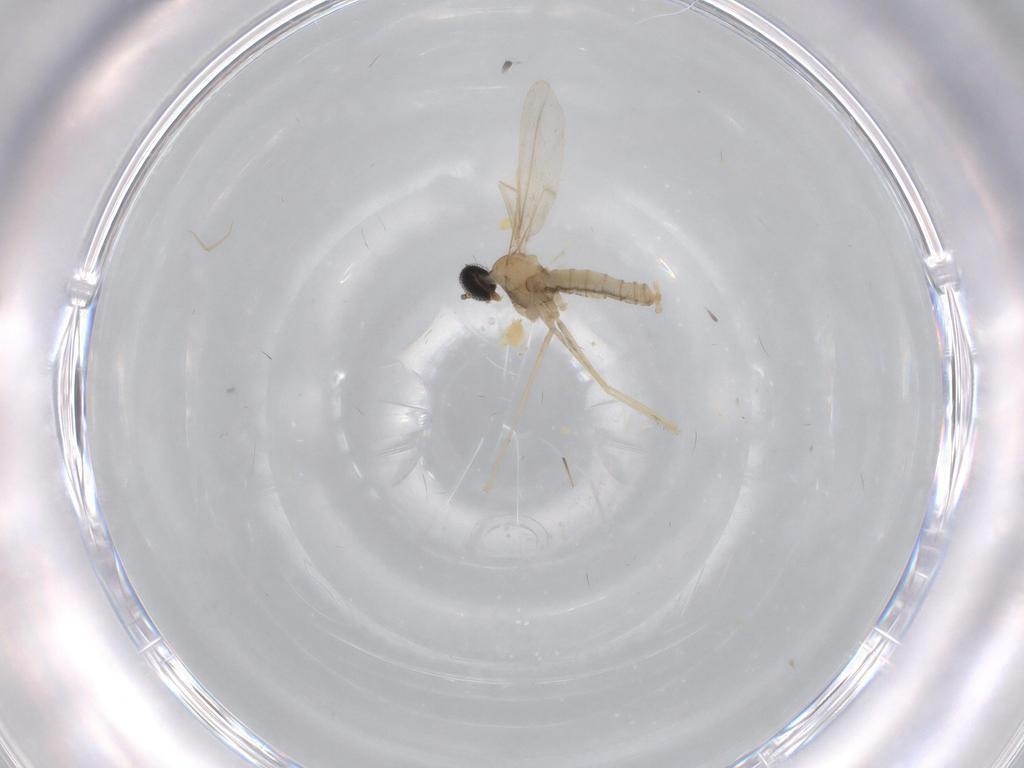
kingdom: Animalia
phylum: Arthropoda
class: Insecta
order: Diptera
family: Cecidomyiidae
